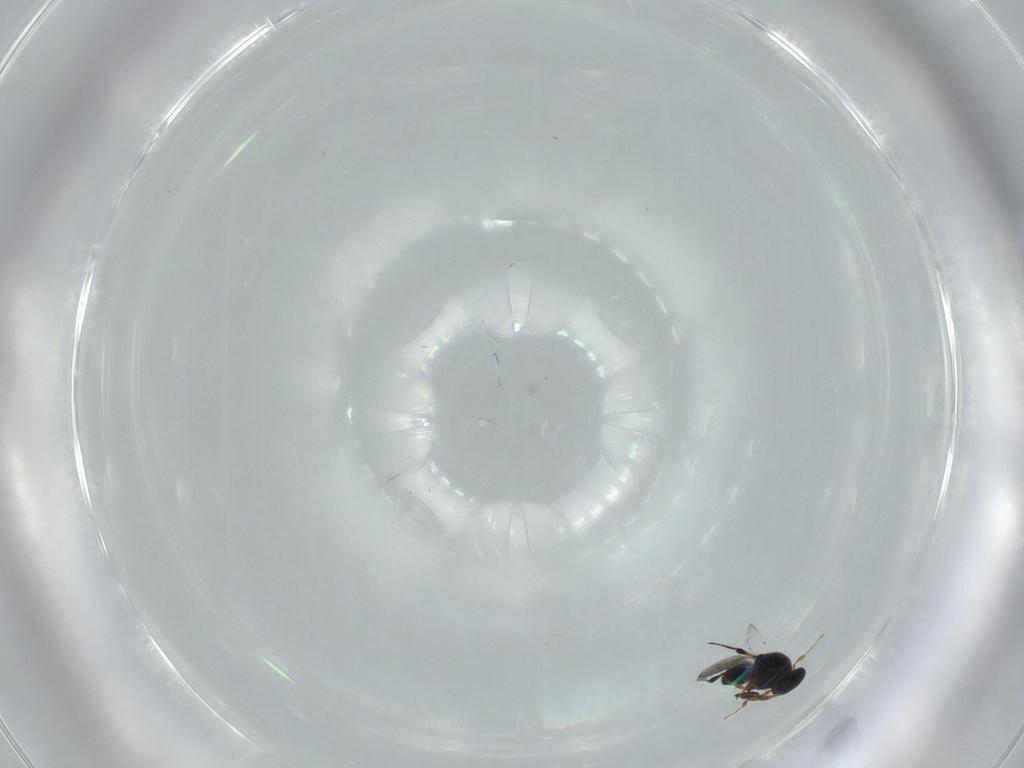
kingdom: Animalia
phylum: Arthropoda
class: Insecta
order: Hymenoptera
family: Platygastridae
